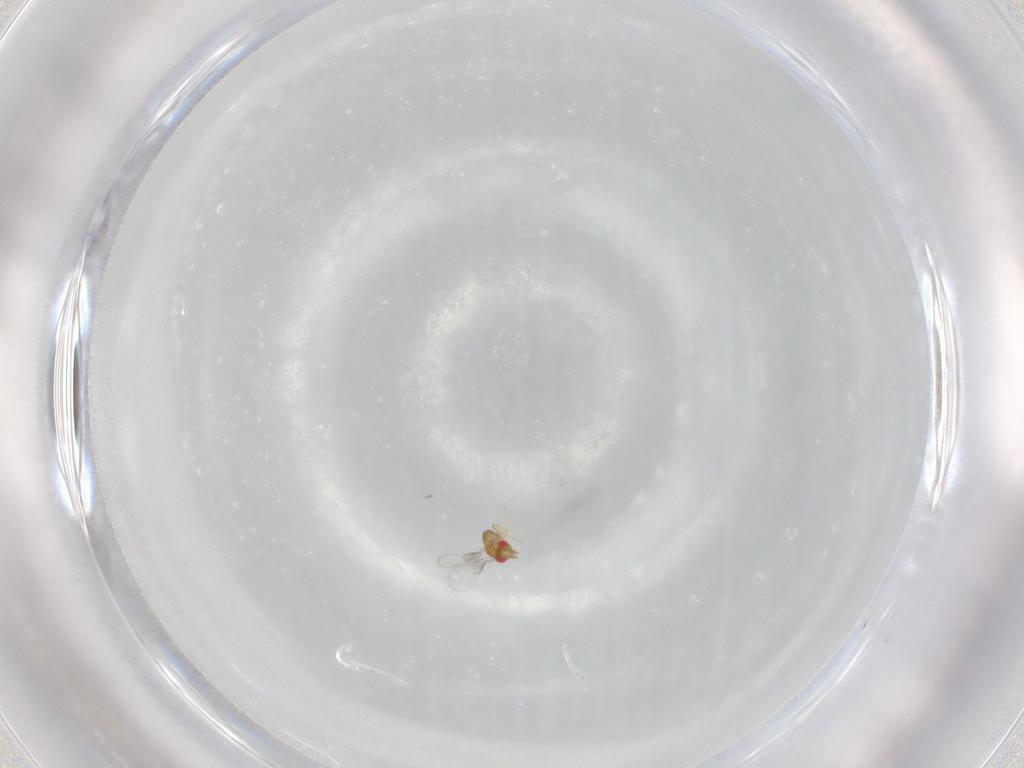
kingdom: Animalia
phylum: Arthropoda
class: Insecta
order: Hymenoptera
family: Trichogrammatidae
